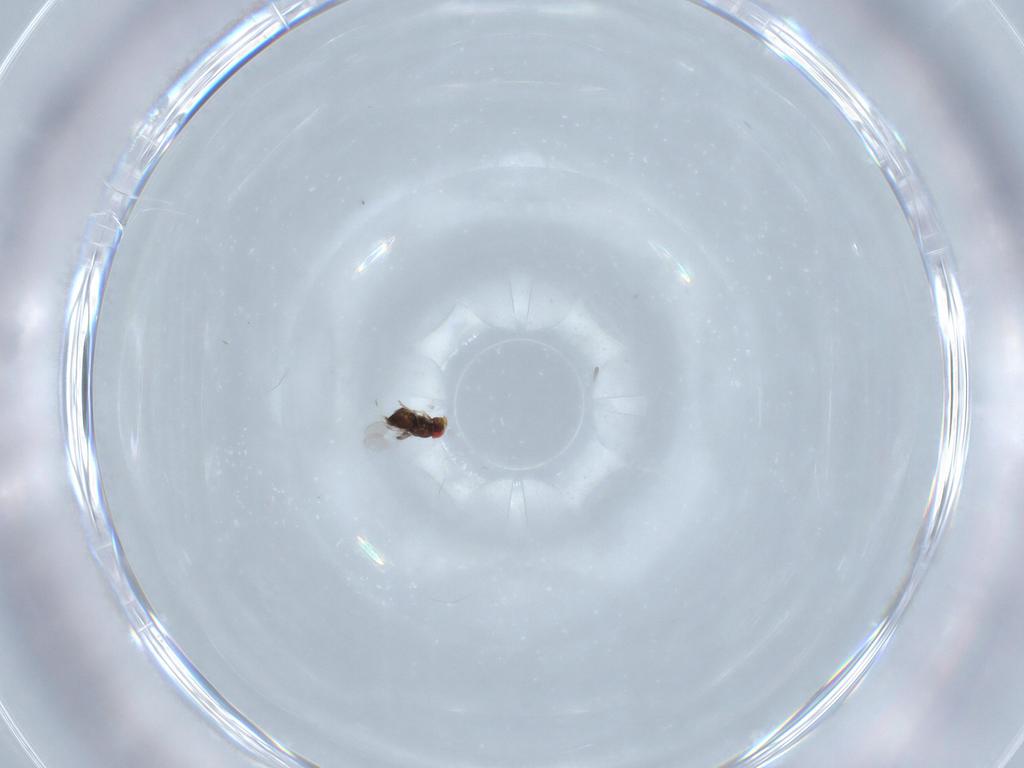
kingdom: Animalia
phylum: Arthropoda
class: Insecta
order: Hymenoptera
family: Trichogrammatidae
